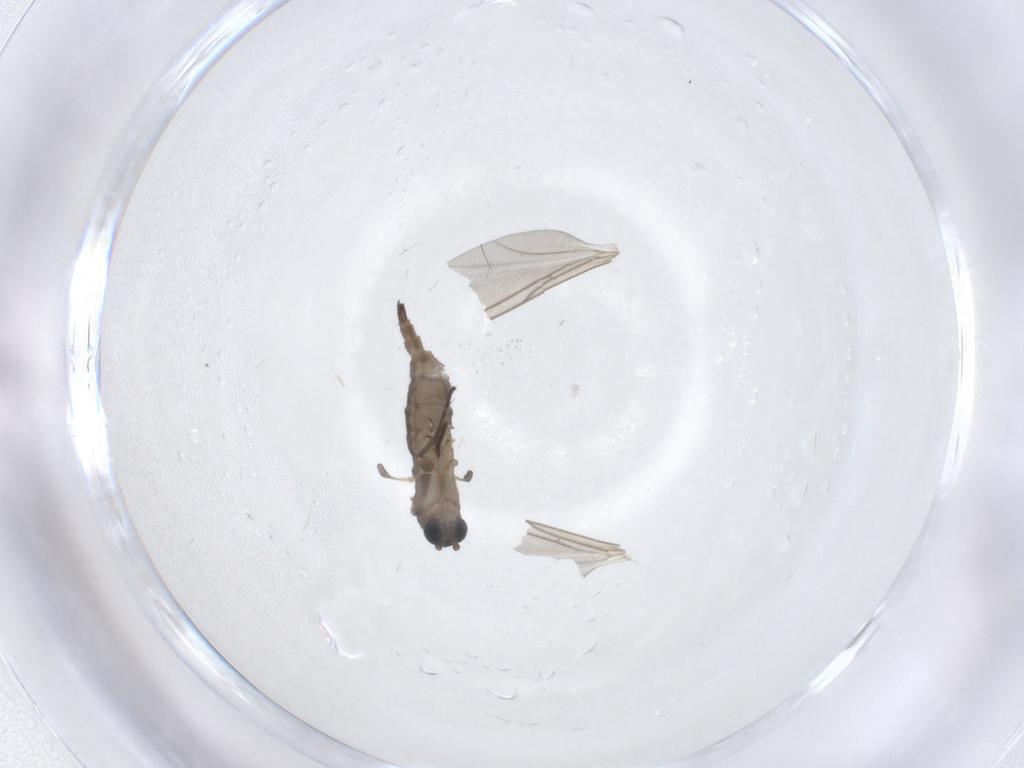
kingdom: Animalia
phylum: Arthropoda
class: Insecta
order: Diptera
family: Sciaridae
